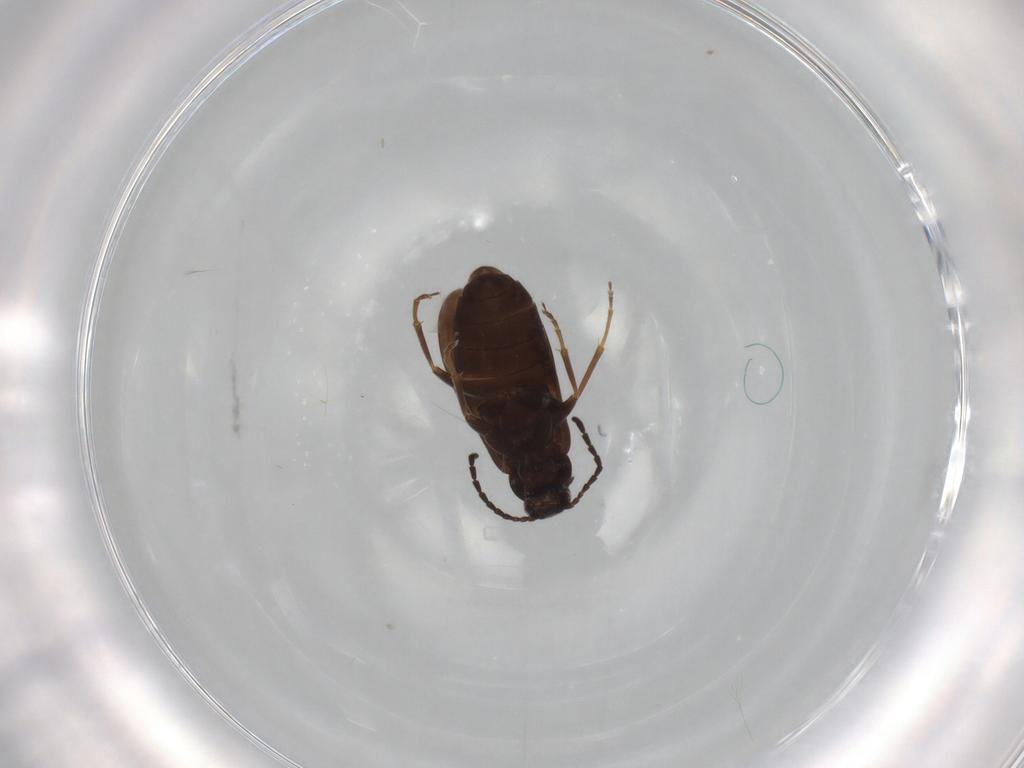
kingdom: Animalia
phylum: Arthropoda
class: Insecta
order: Coleoptera
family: Scraptiidae
